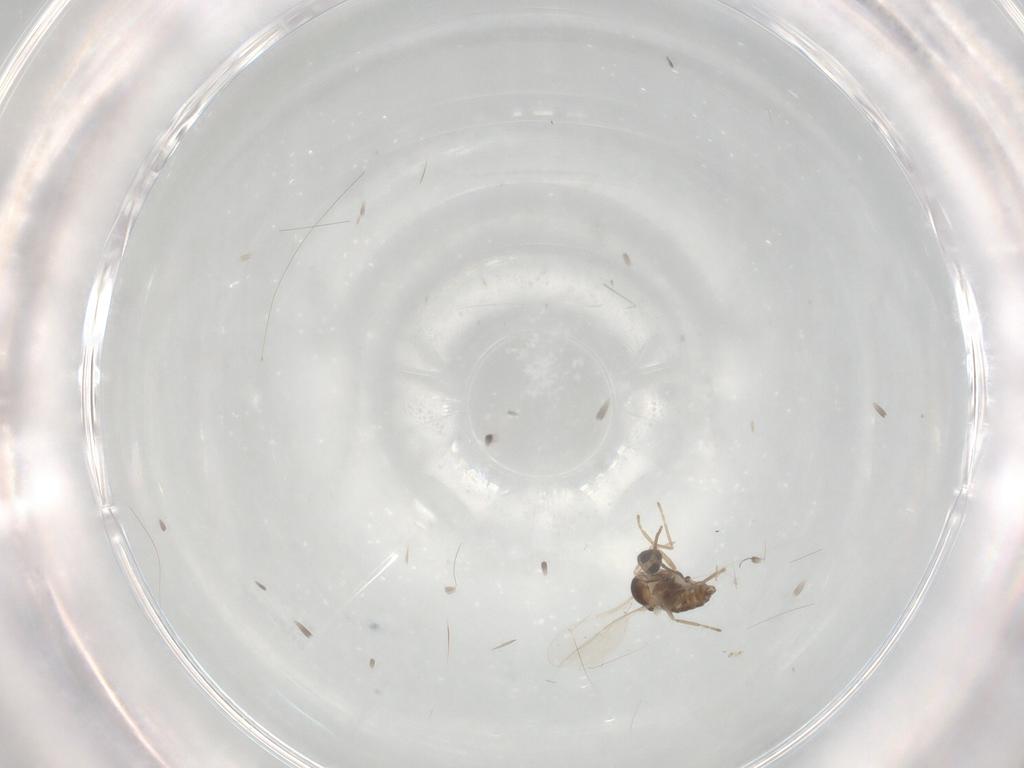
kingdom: Animalia
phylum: Arthropoda
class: Insecta
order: Diptera
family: Cecidomyiidae
